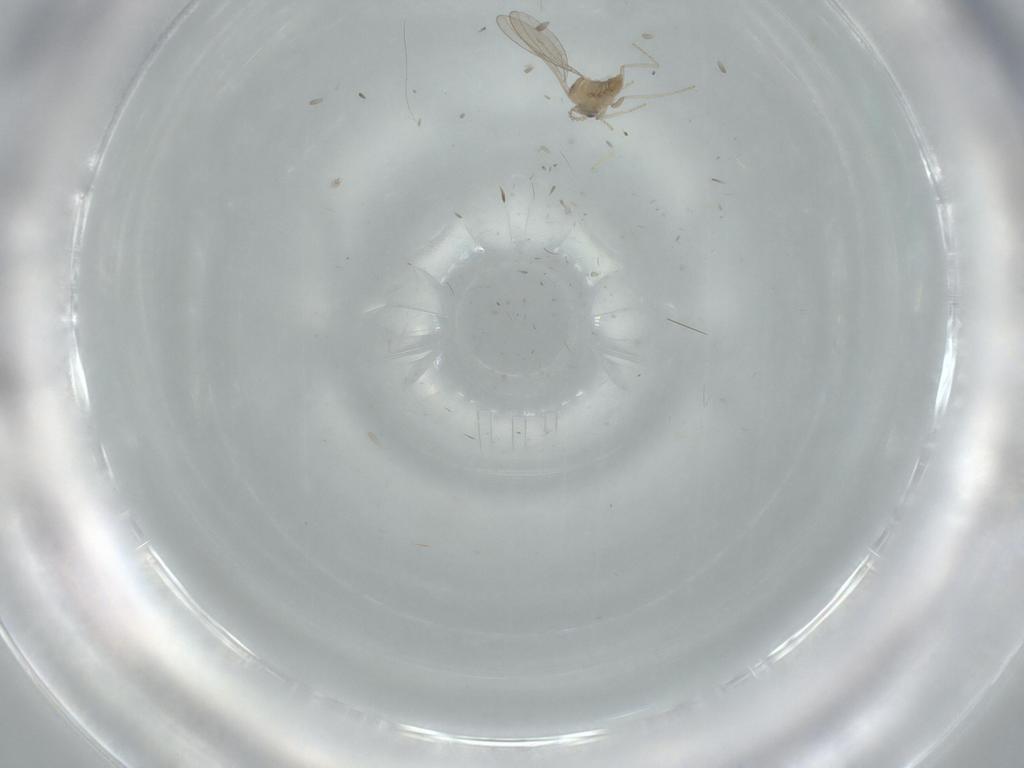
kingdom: Animalia
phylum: Arthropoda
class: Insecta
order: Diptera
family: Cecidomyiidae
